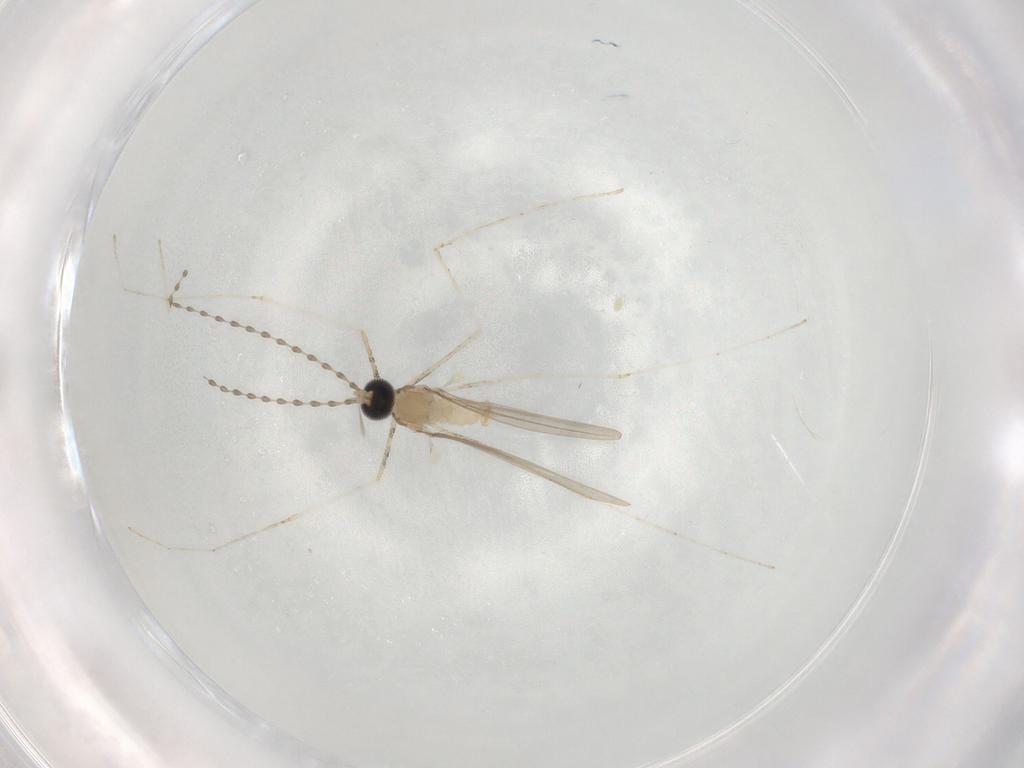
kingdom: Animalia
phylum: Arthropoda
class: Insecta
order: Diptera
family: Chironomidae
